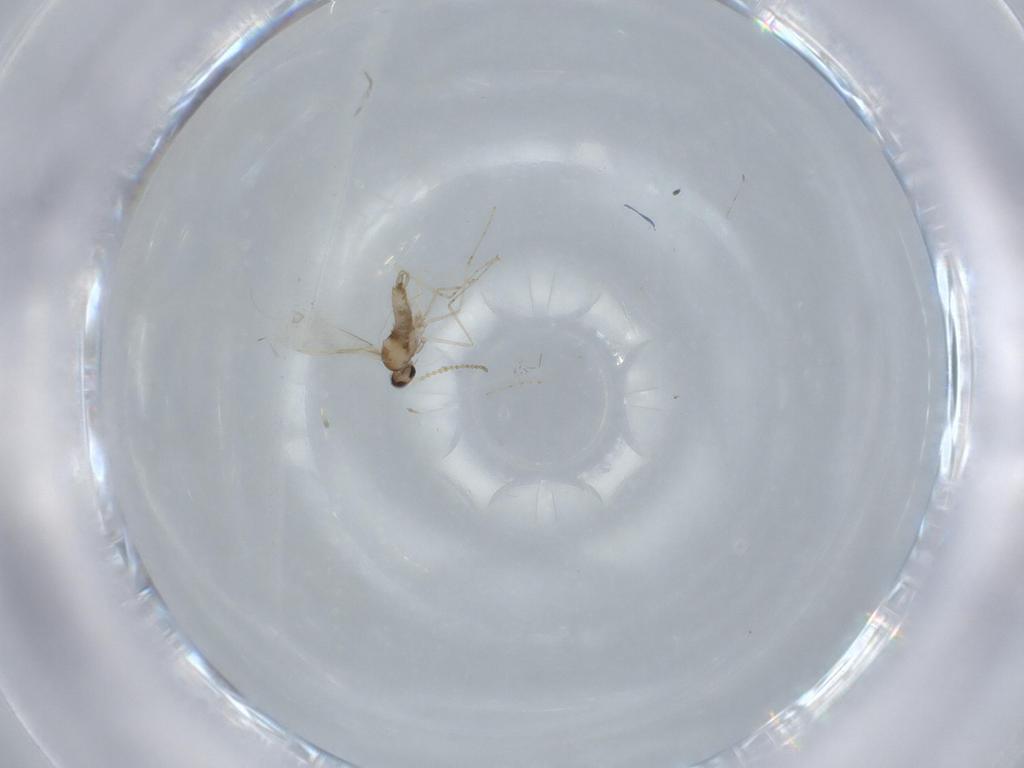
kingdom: Animalia
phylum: Arthropoda
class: Insecta
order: Diptera
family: Cecidomyiidae
